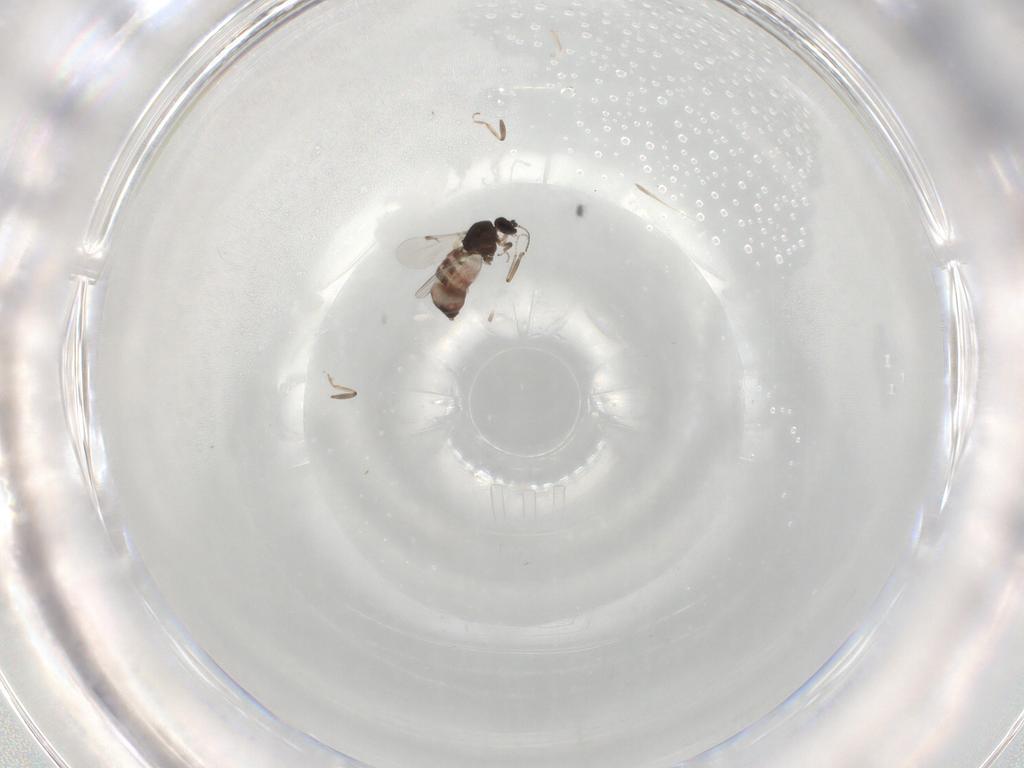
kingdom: Animalia
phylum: Arthropoda
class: Insecta
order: Diptera
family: Ceratopogonidae
